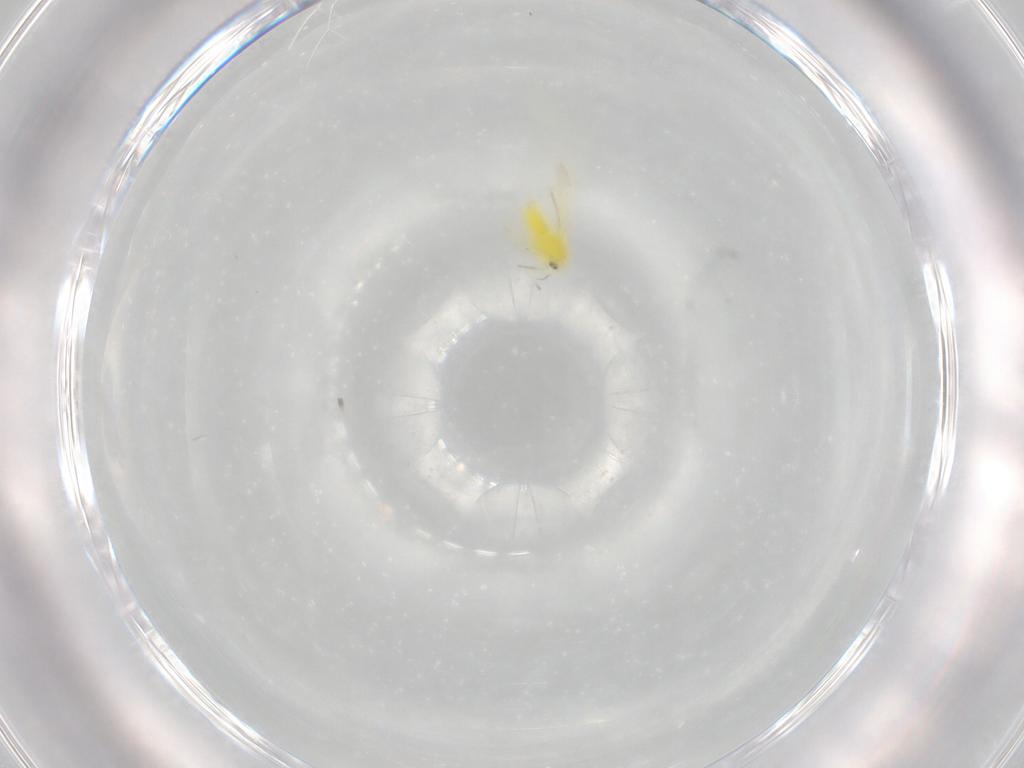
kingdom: Animalia
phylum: Arthropoda
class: Insecta
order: Hemiptera
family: Aleyrodidae
